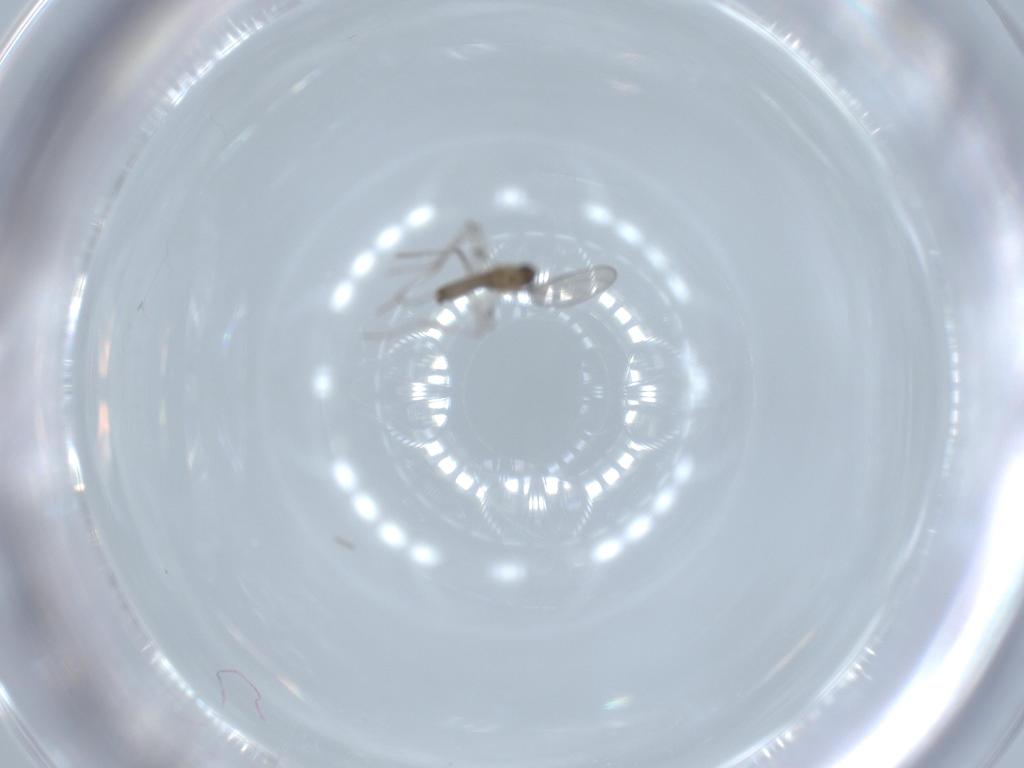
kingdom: Animalia
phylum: Arthropoda
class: Insecta
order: Diptera
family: Cecidomyiidae
